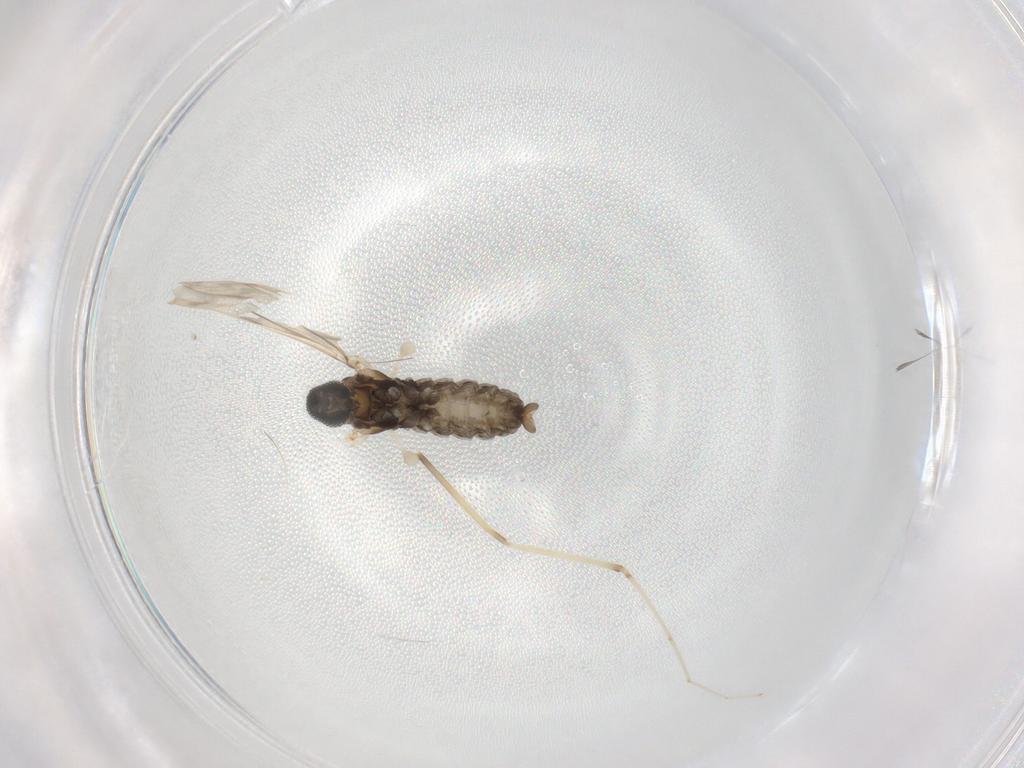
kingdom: Animalia
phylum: Arthropoda
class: Insecta
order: Diptera
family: Cecidomyiidae
